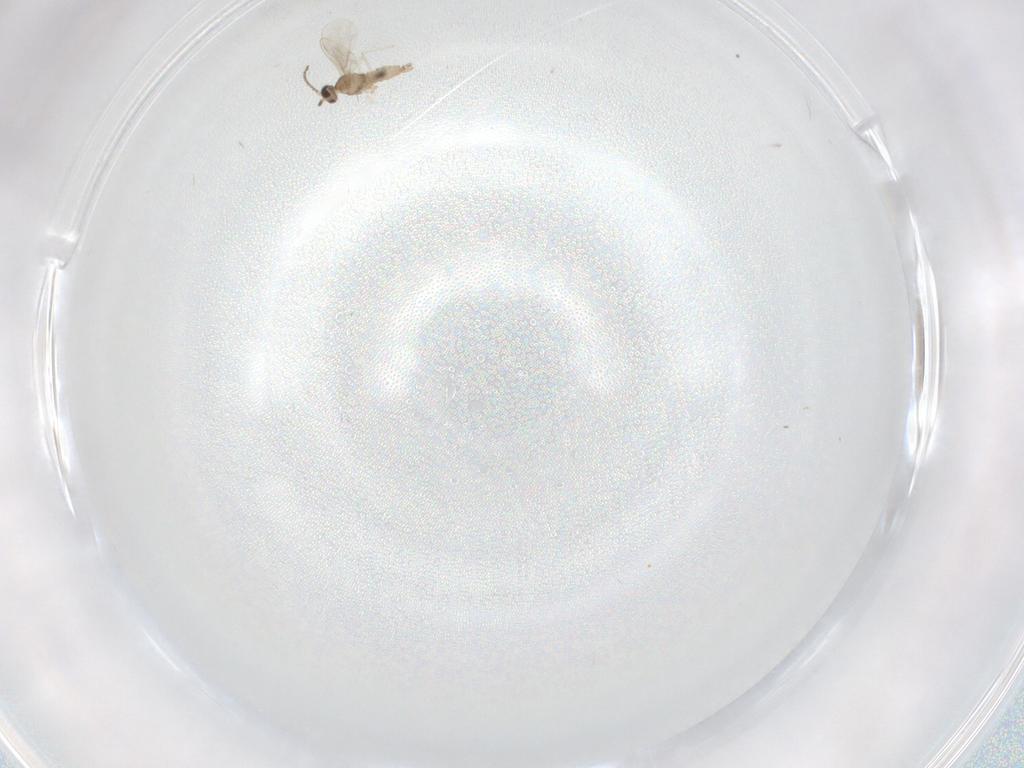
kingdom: Animalia
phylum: Arthropoda
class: Insecta
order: Diptera
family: Cecidomyiidae
